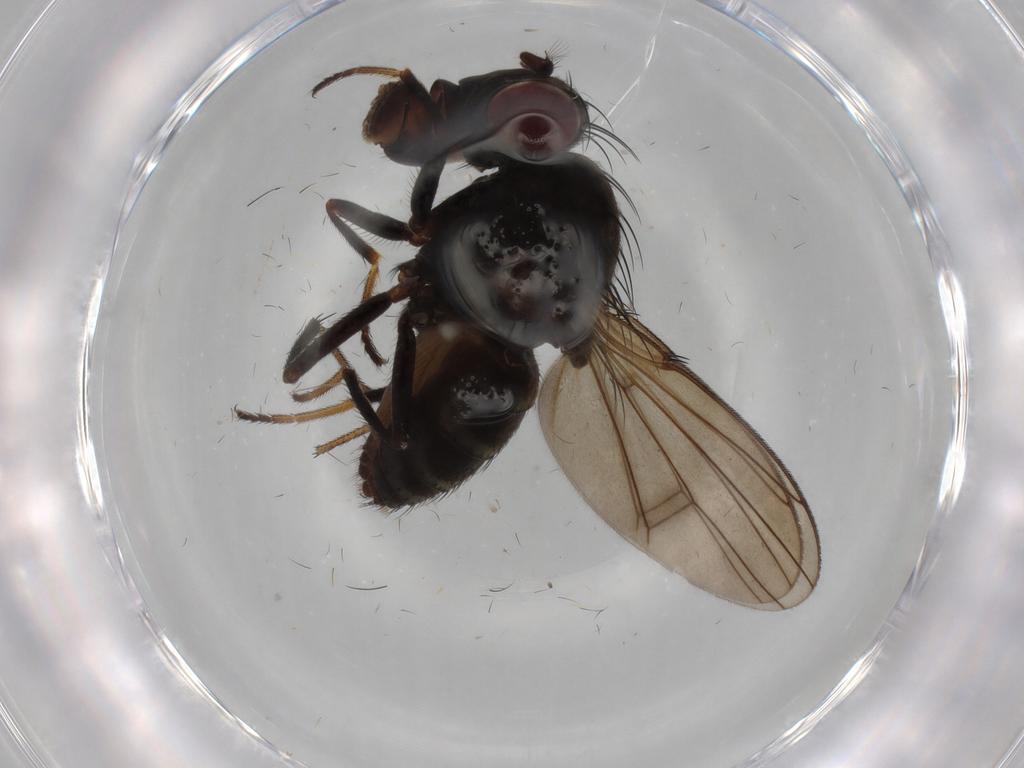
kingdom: Animalia
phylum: Arthropoda
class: Insecta
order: Diptera
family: Ephydridae
